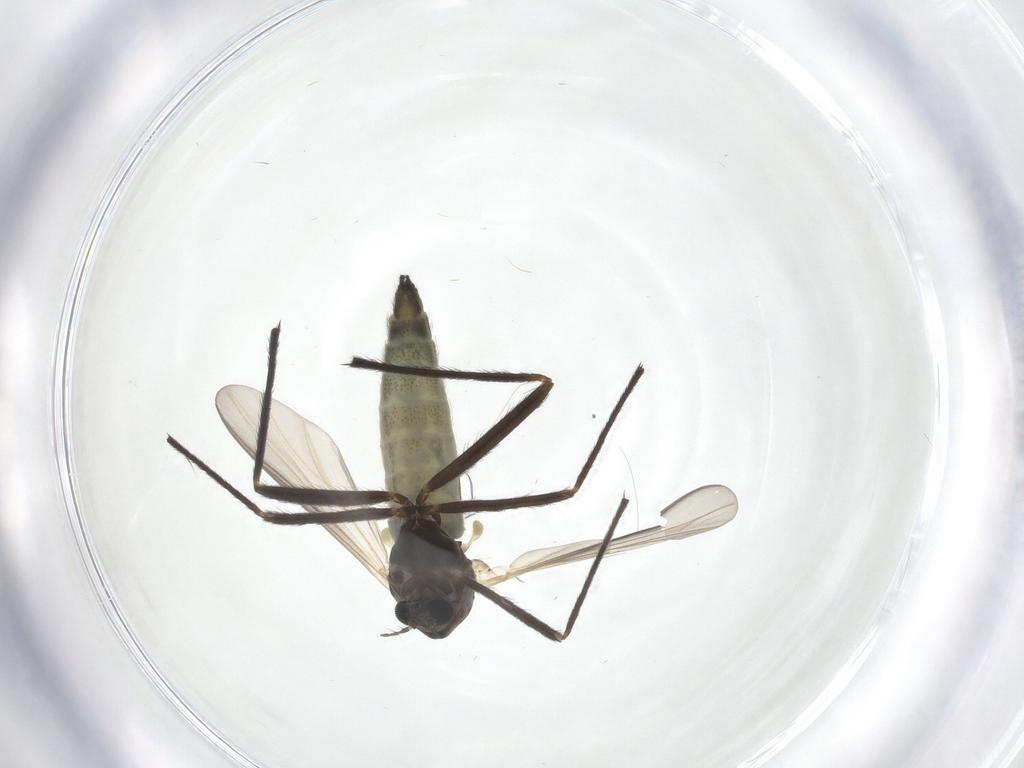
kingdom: Animalia
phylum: Arthropoda
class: Insecta
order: Diptera
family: Chironomidae
